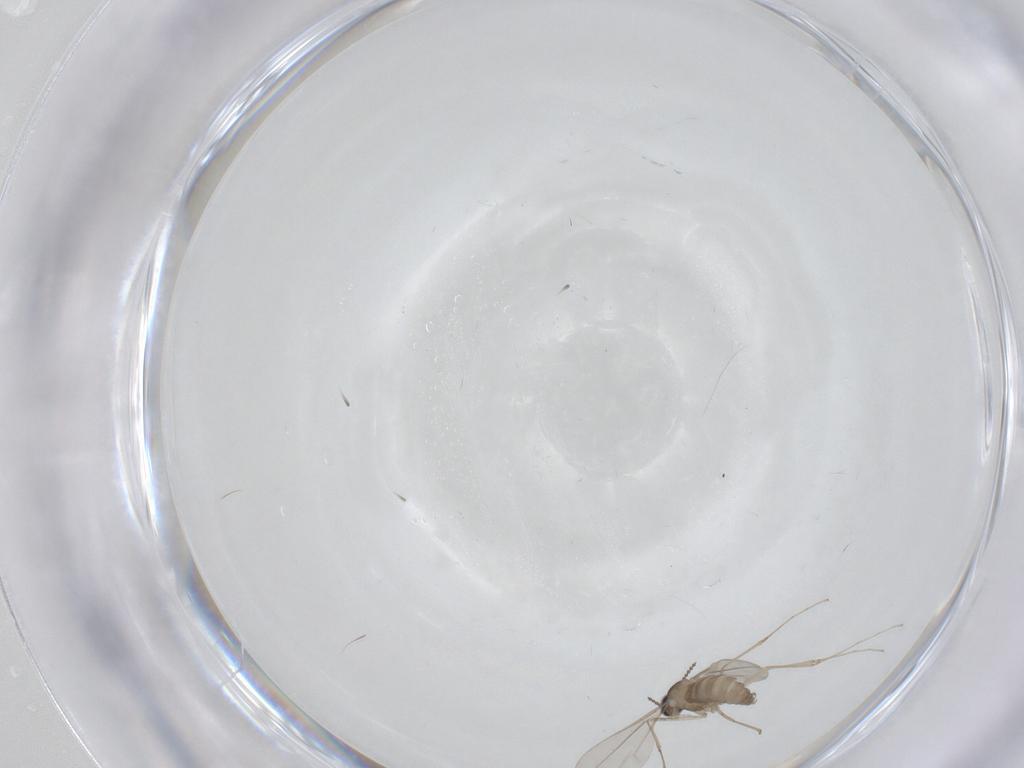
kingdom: Animalia
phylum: Arthropoda
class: Insecta
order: Diptera
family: Cecidomyiidae
